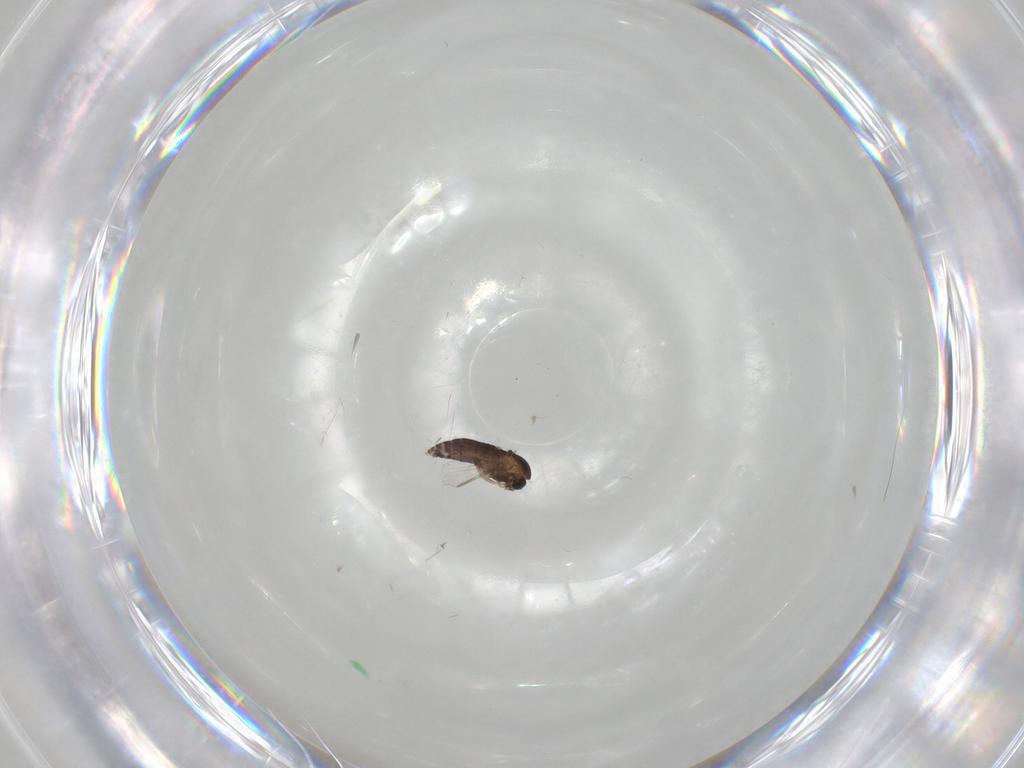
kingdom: Animalia
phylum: Arthropoda
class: Insecta
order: Diptera
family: Chironomidae
